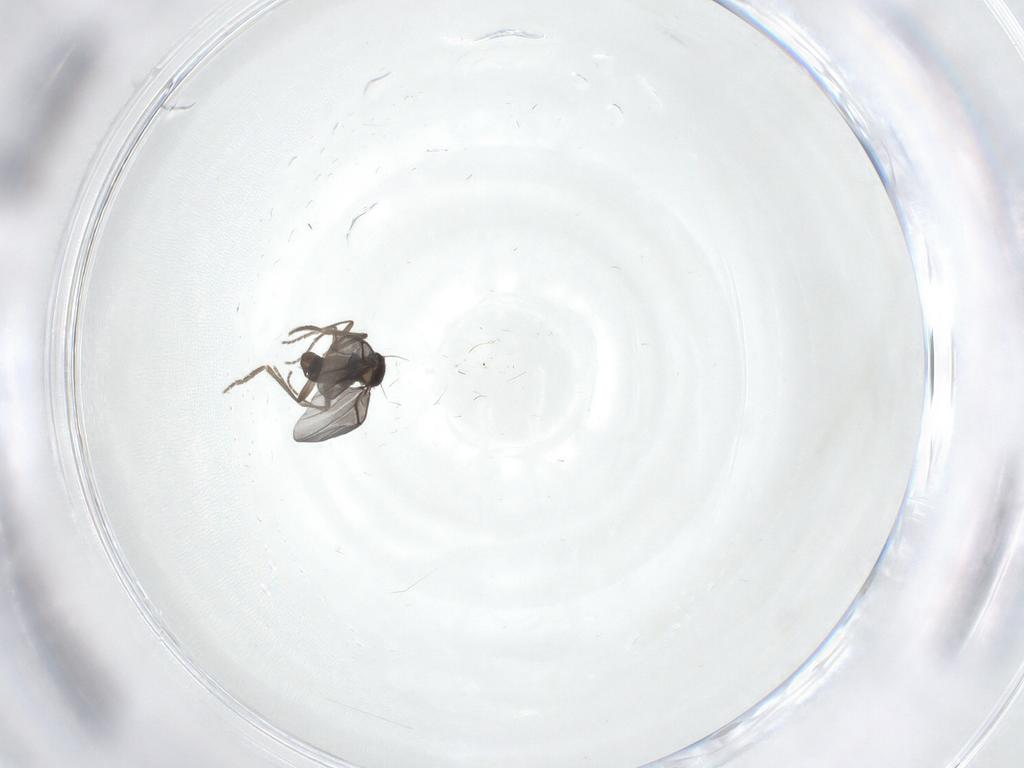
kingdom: Animalia
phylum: Arthropoda
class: Insecta
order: Diptera
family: Phoridae
